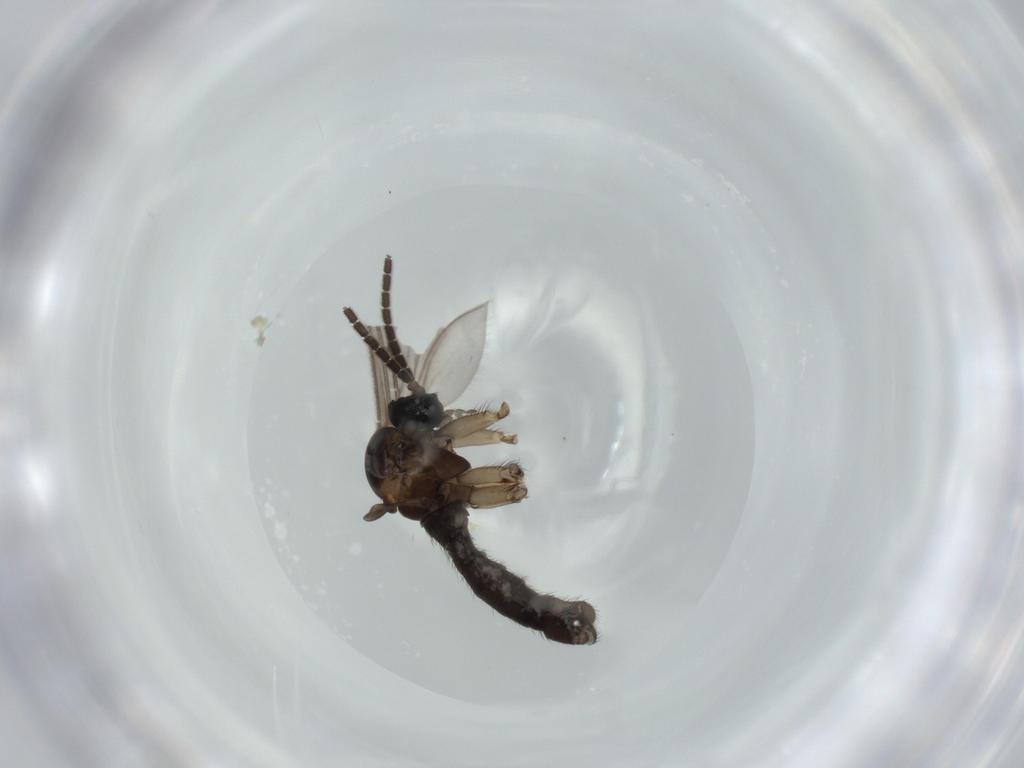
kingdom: Animalia
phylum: Arthropoda
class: Insecta
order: Diptera
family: Sciaridae
